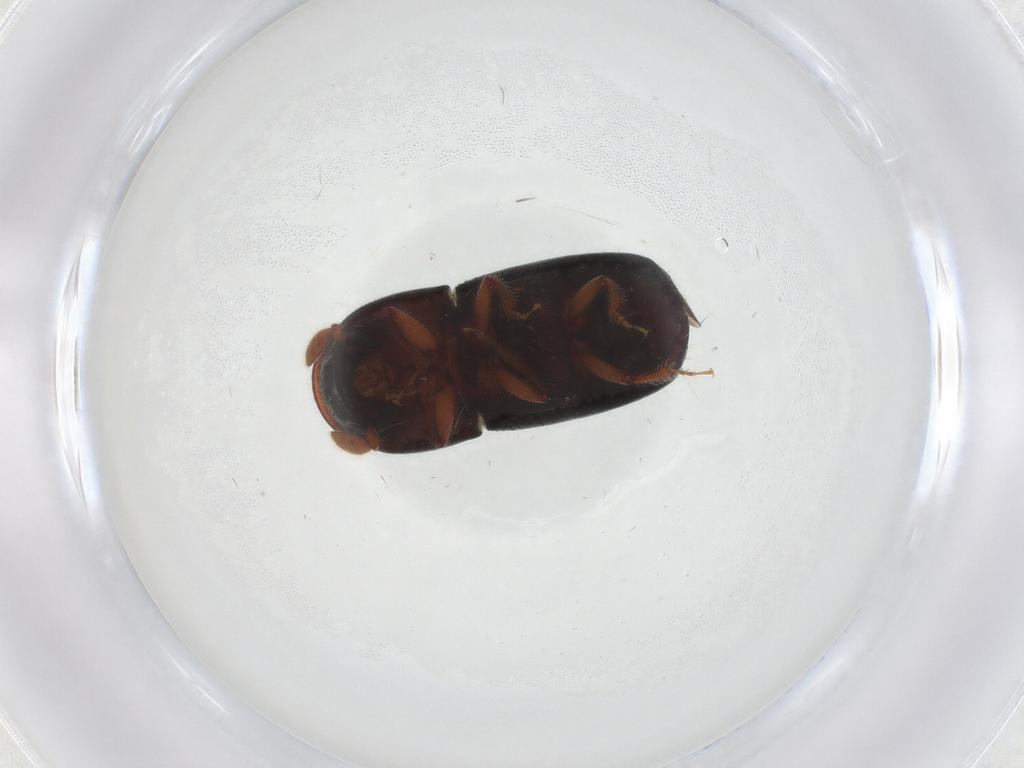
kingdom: Animalia
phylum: Arthropoda
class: Insecta
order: Coleoptera
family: Curculionidae
